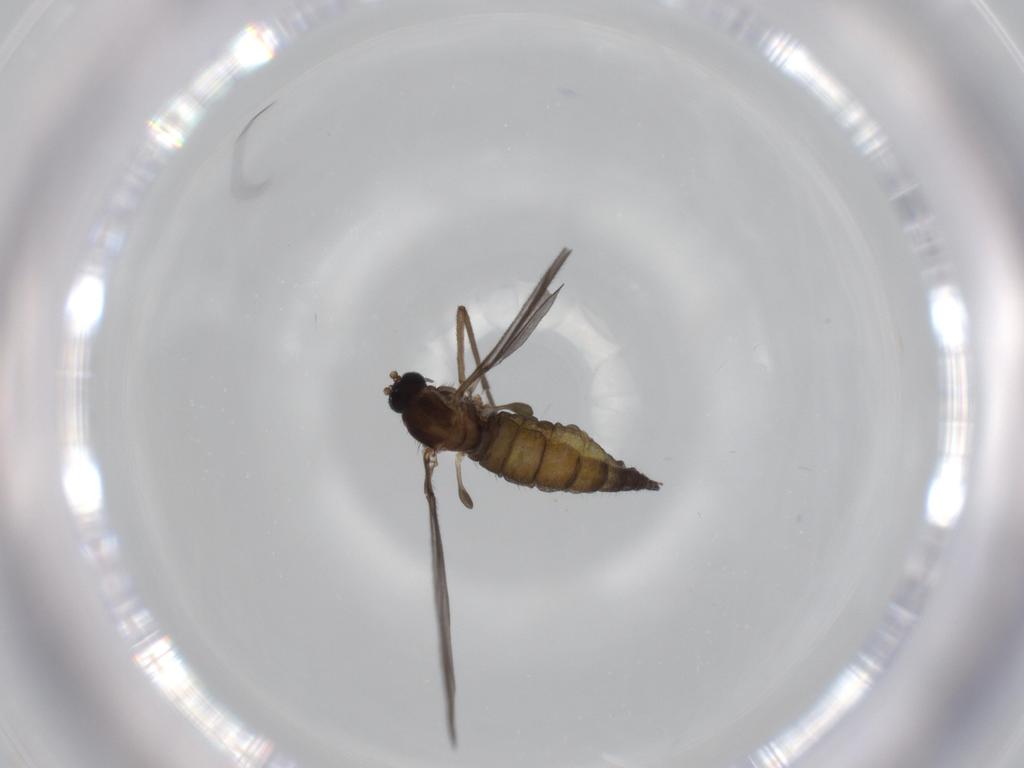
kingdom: Animalia
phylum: Arthropoda
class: Insecta
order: Diptera
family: Sciaridae
